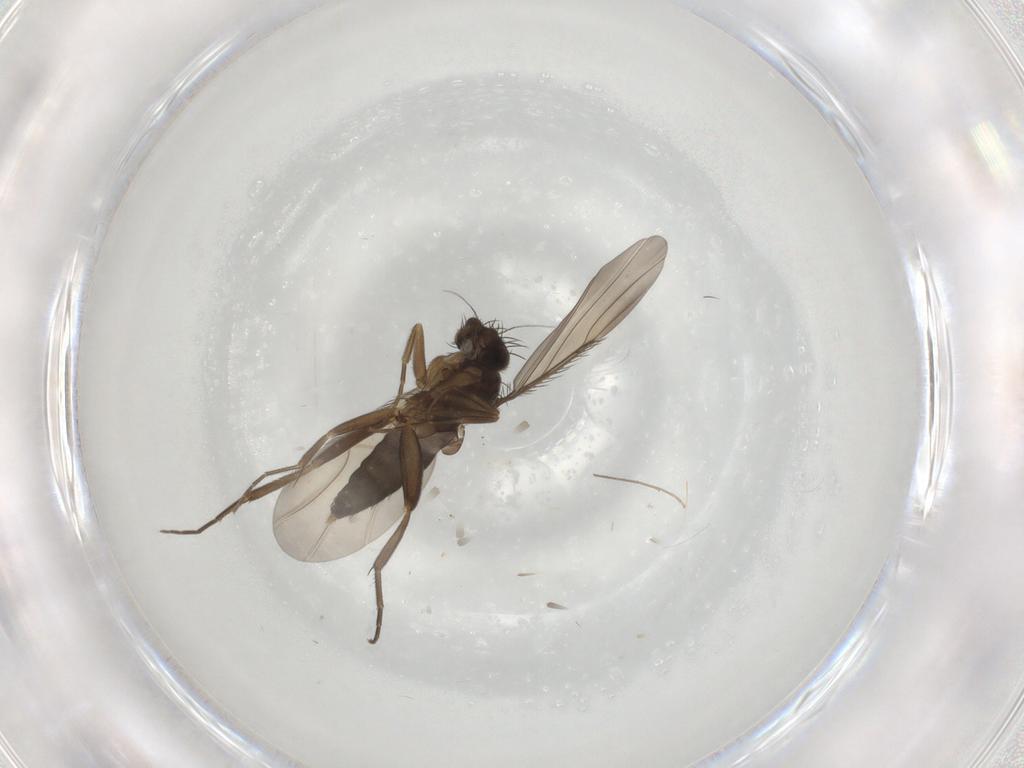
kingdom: Animalia
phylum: Arthropoda
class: Insecta
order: Diptera
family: Phoridae
